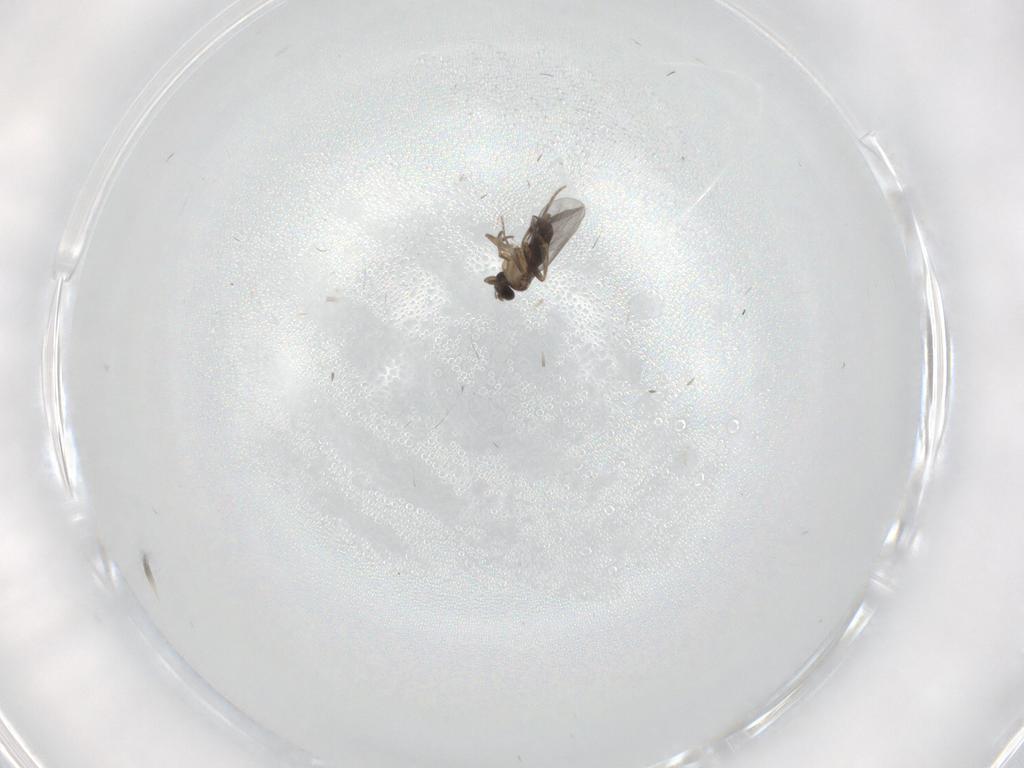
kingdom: Animalia
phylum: Arthropoda
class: Insecta
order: Diptera
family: Cecidomyiidae
